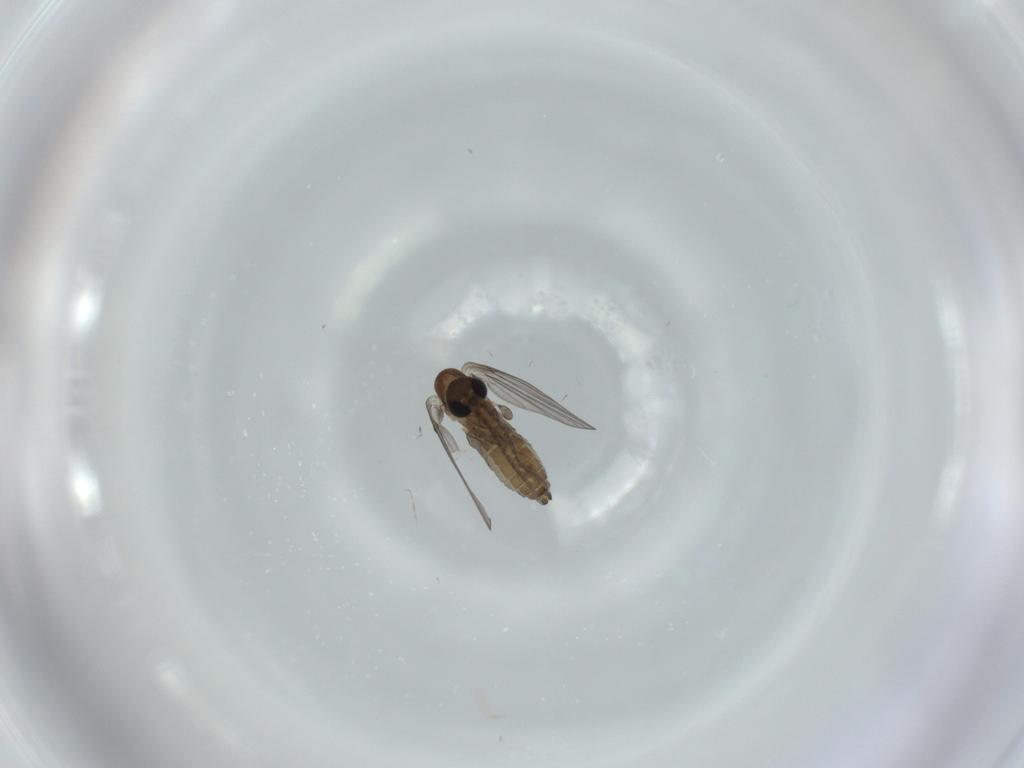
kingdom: Animalia
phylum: Arthropoda
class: Insecta
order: Diptera
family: Psychodidae
